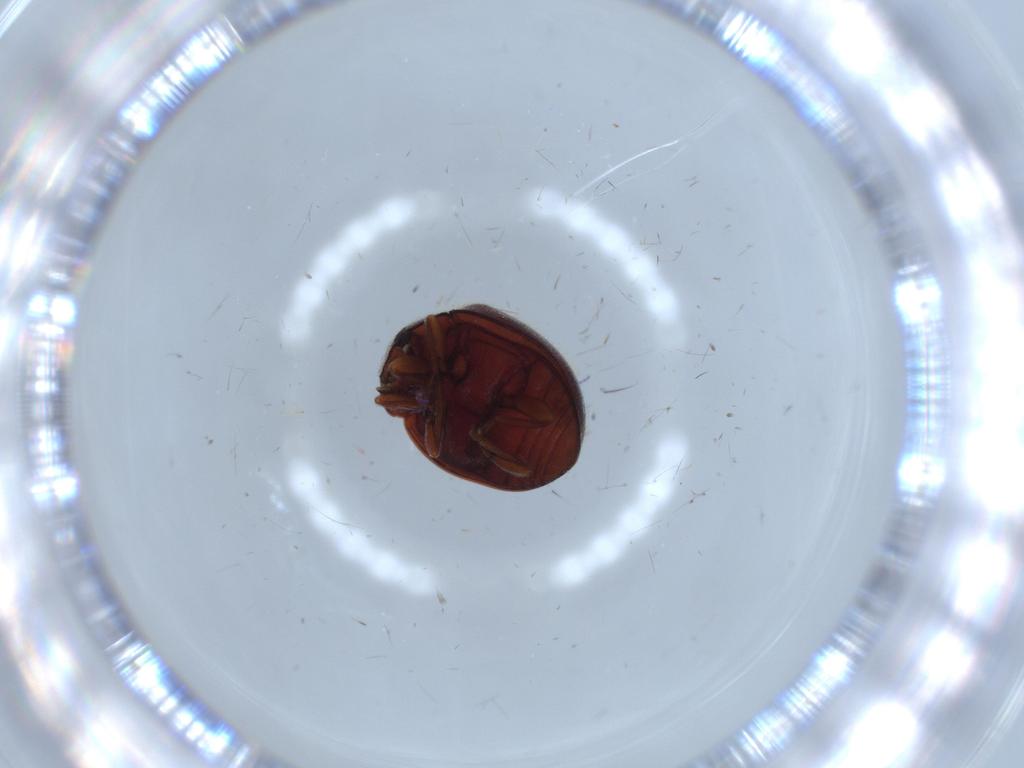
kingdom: Animalia
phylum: Arthropoda
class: Insecta
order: Coleoptera
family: Coccinellidae
